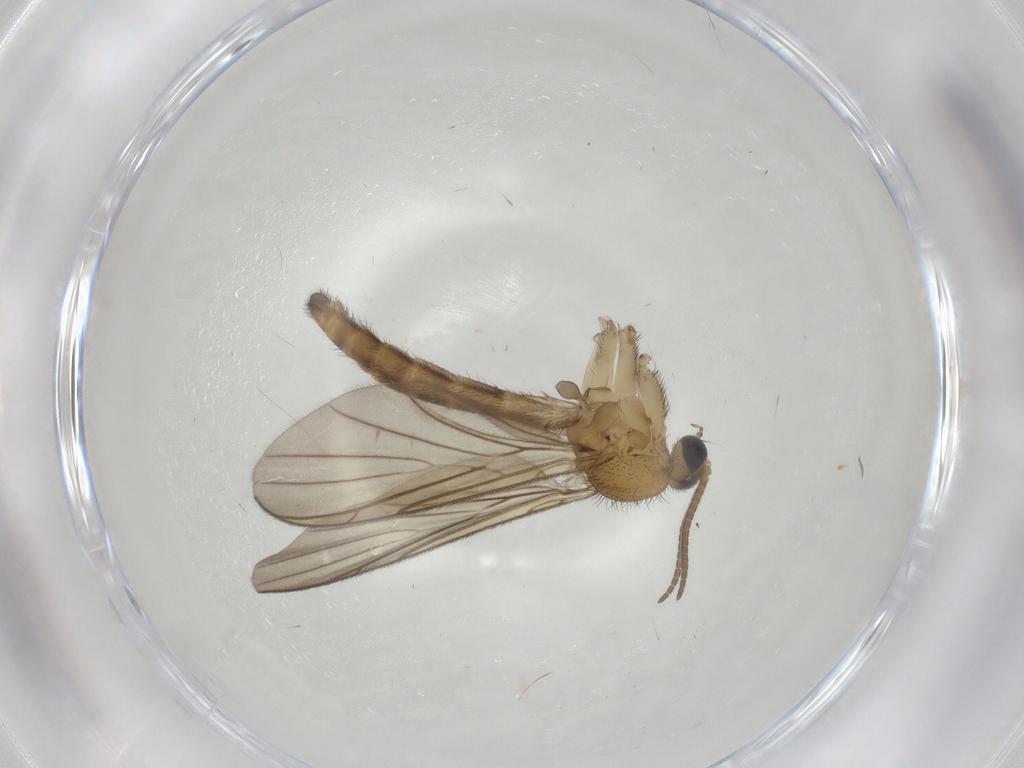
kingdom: Animalia
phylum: Arthropoda
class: Insecta
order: Diptera
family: Keroplatidae
